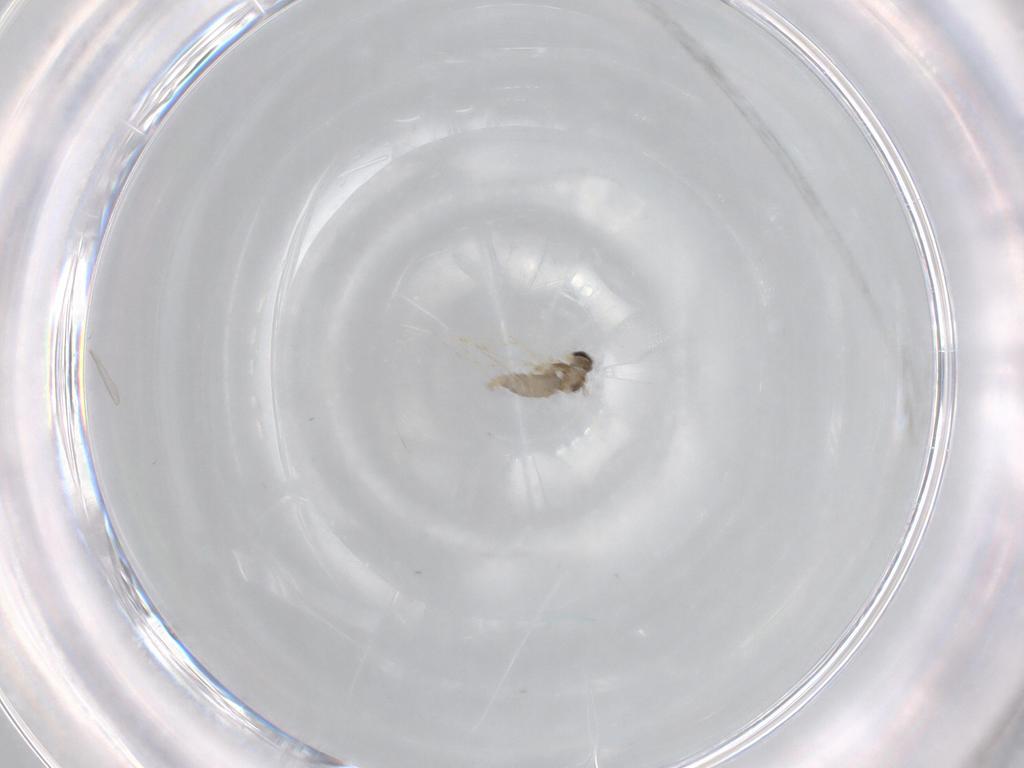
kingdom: Animalia
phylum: Arthropoda
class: Insecta
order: Diptera
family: Cecidomyiidae
